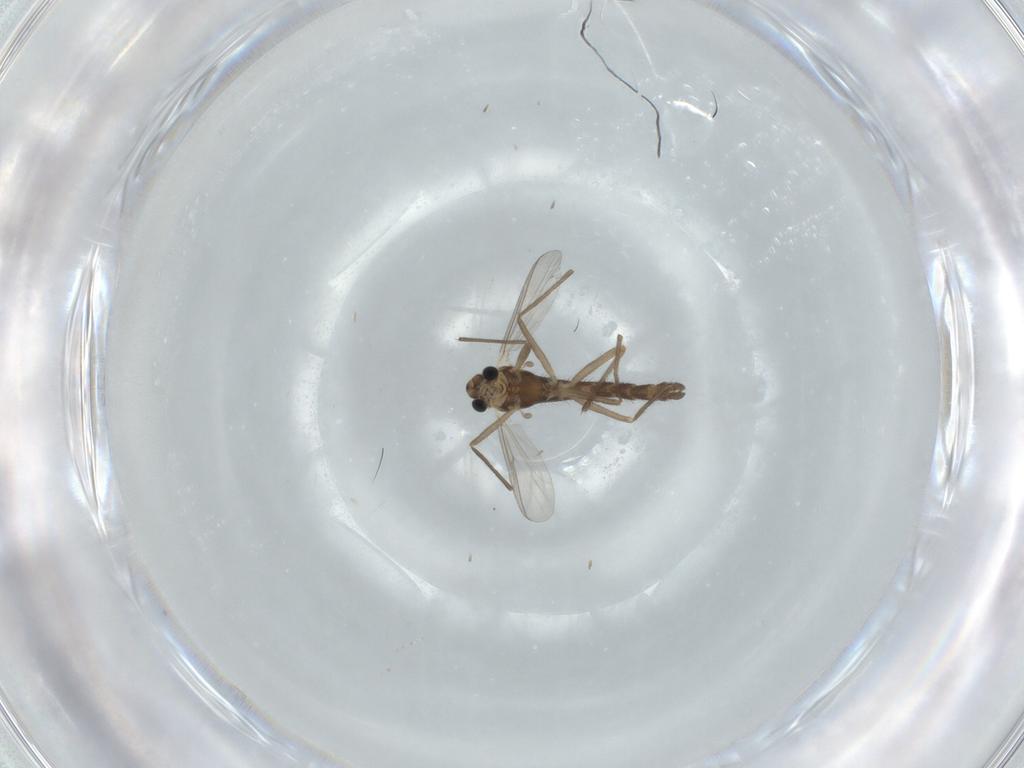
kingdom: Animalia
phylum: Arthropoda
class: Insecta
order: Diptera
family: Chironomidae
